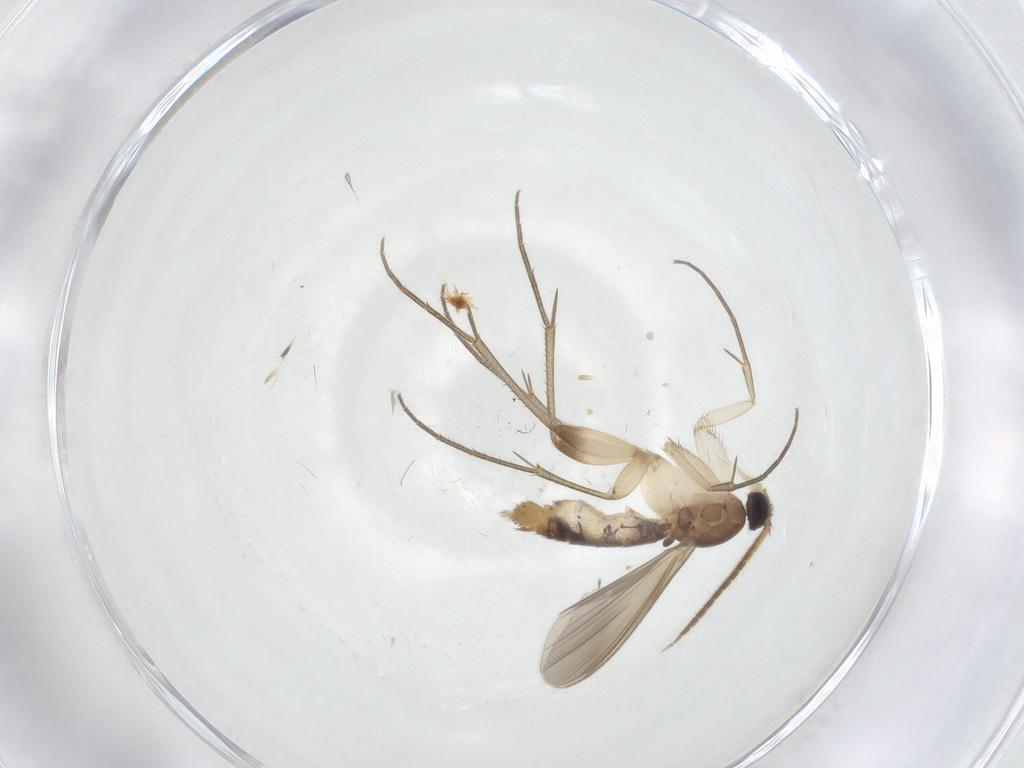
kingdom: Animalia
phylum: Arthropoda
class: Insecta
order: Diptera
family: Mycetophilidae
